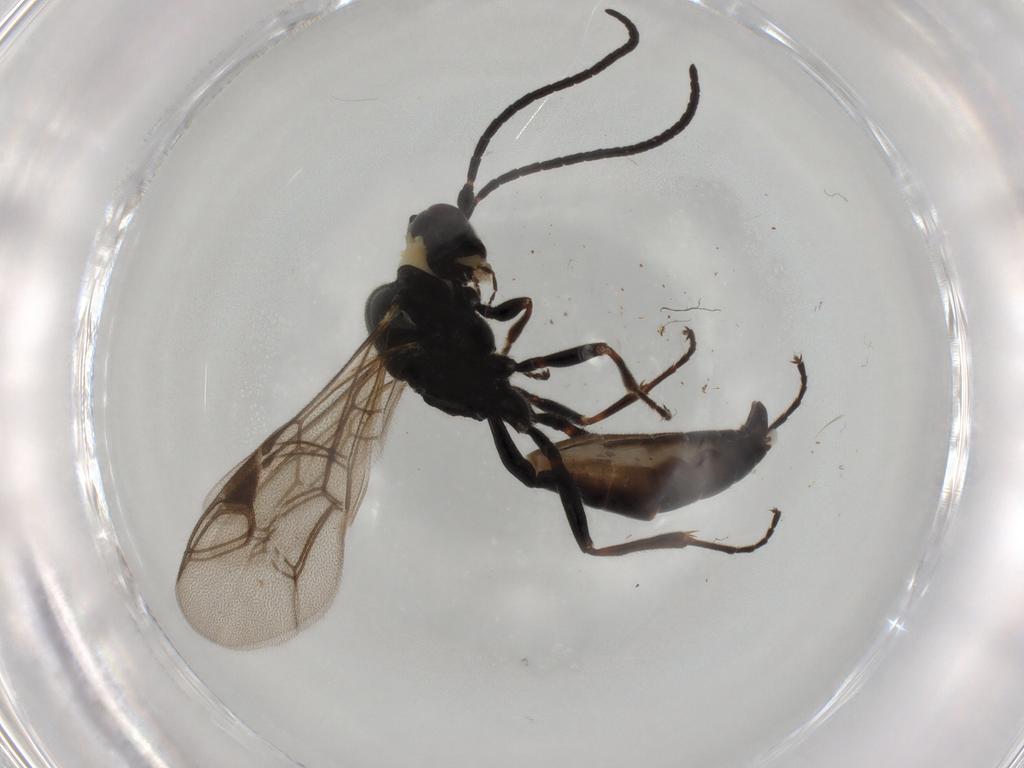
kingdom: Animalia
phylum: Arthropoda
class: Insecta
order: Hymenoptera
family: Ichneumonidae
